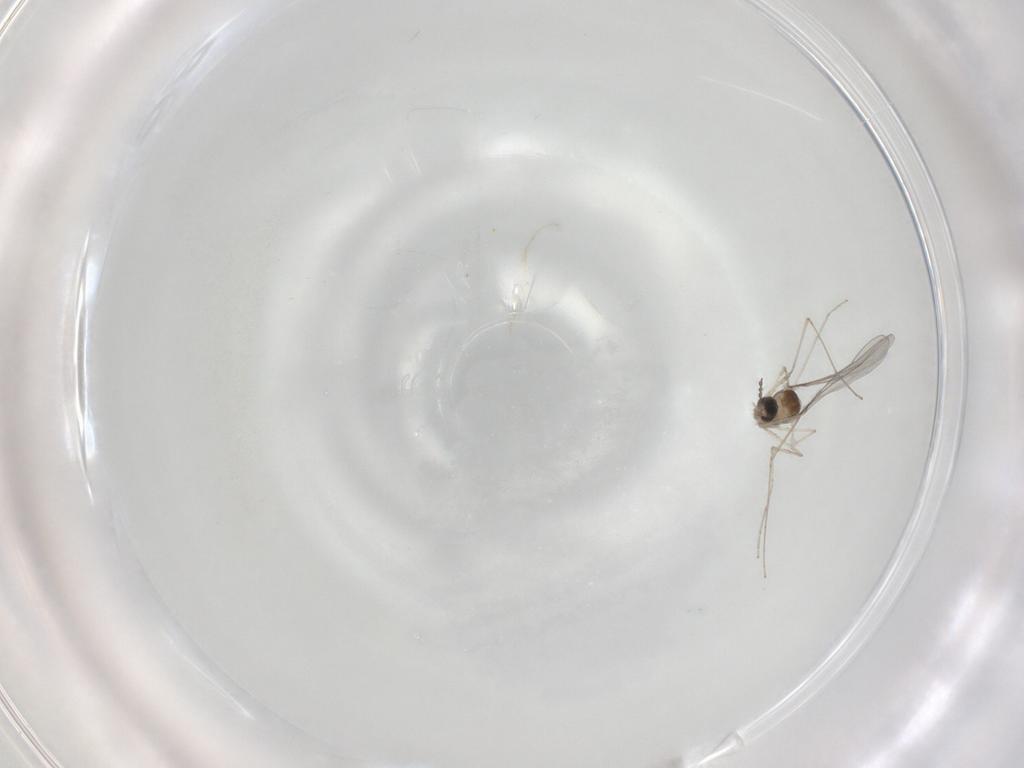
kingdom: Animalia
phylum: Arthropoda
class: Insecta
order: Diptera
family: Cecidomyiidae
